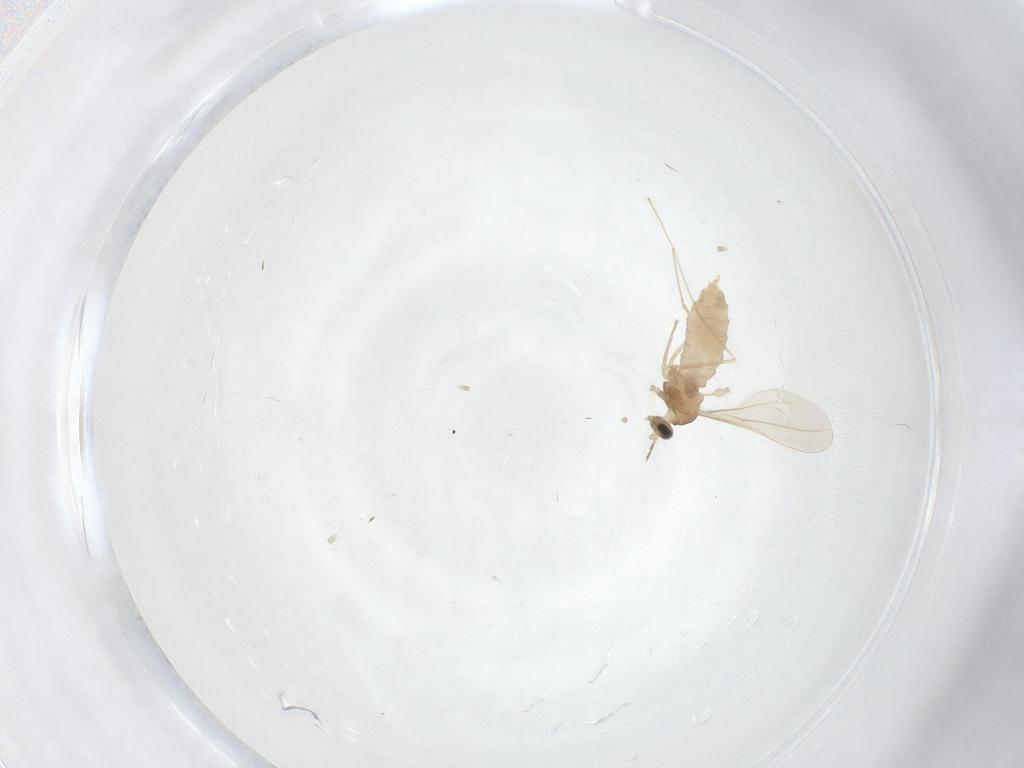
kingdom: Animalia
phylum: Arthropoda
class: Insecta
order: Diptera
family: Cecidomyiidae
